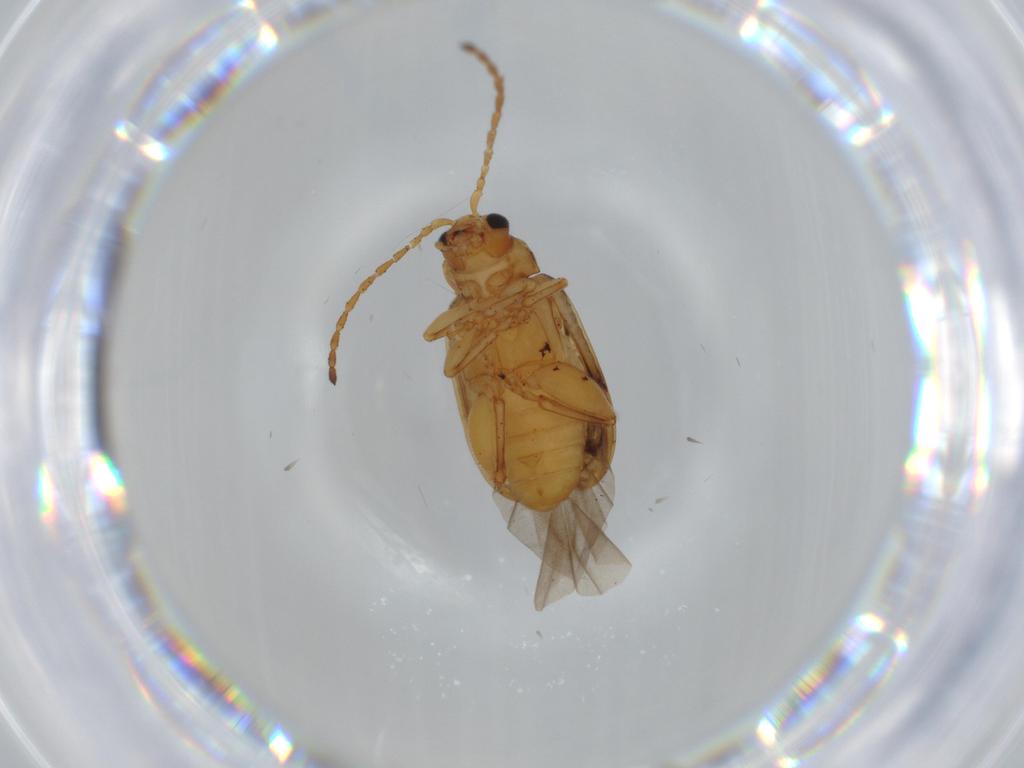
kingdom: Animalia
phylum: Arthropoda
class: Insecta
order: Coleoptera
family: Chrysomelidae
